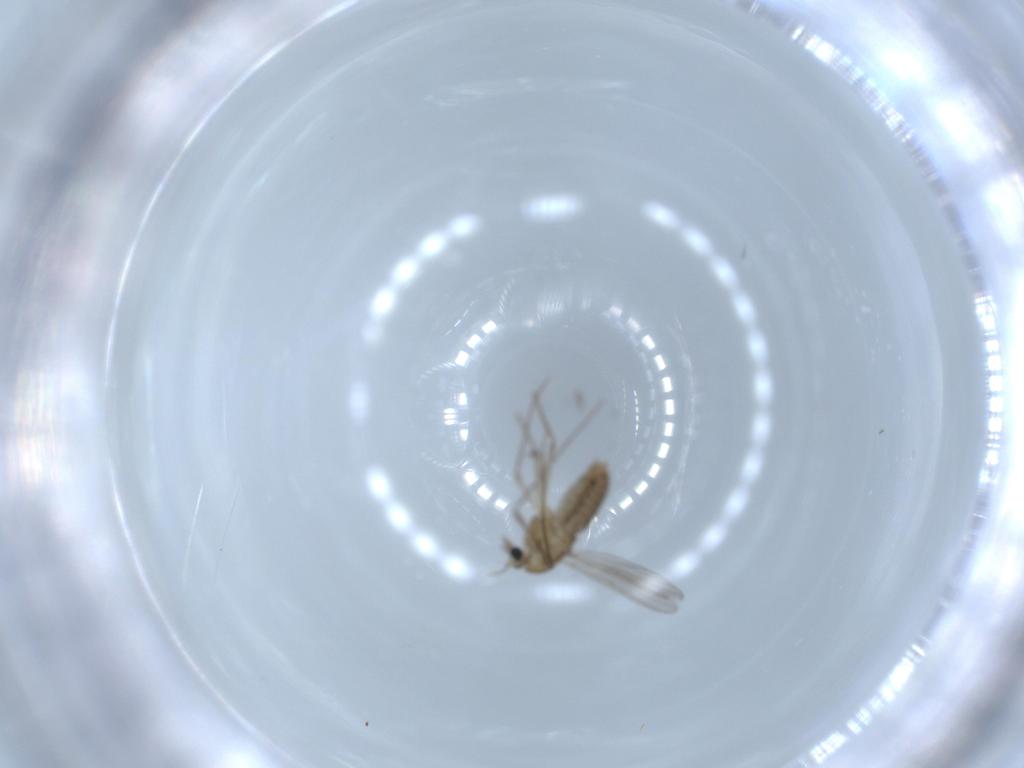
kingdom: Animalia
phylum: Arthropoda
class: Insecta
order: Diptera
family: Chironomidae
